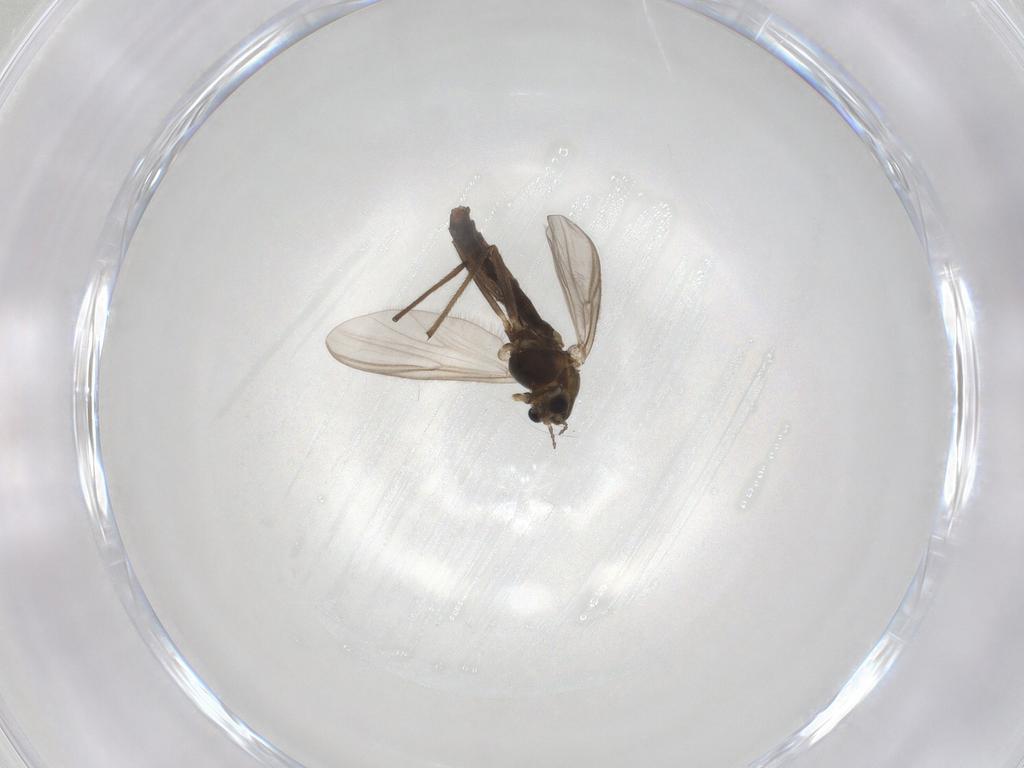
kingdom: Animalia
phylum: Arthropoda
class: Insecta
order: Diptera
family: Chironomidae
